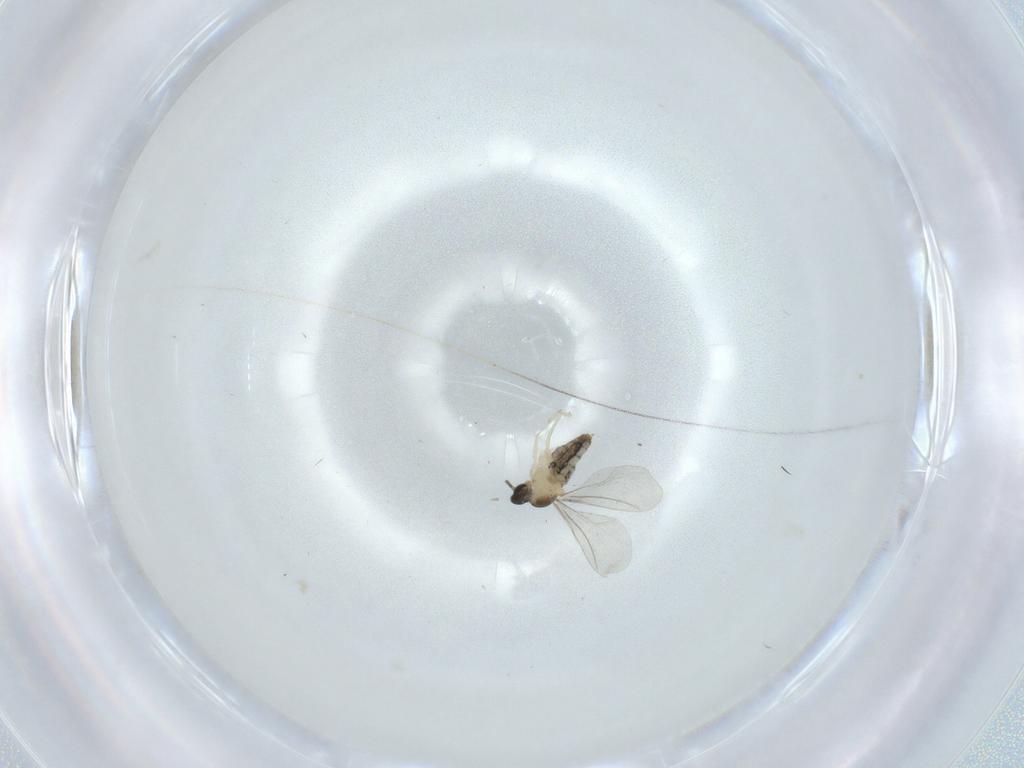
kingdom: Animalia
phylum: Arthropoda
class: Insecta
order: Diptera
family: Cecidomyiidae
